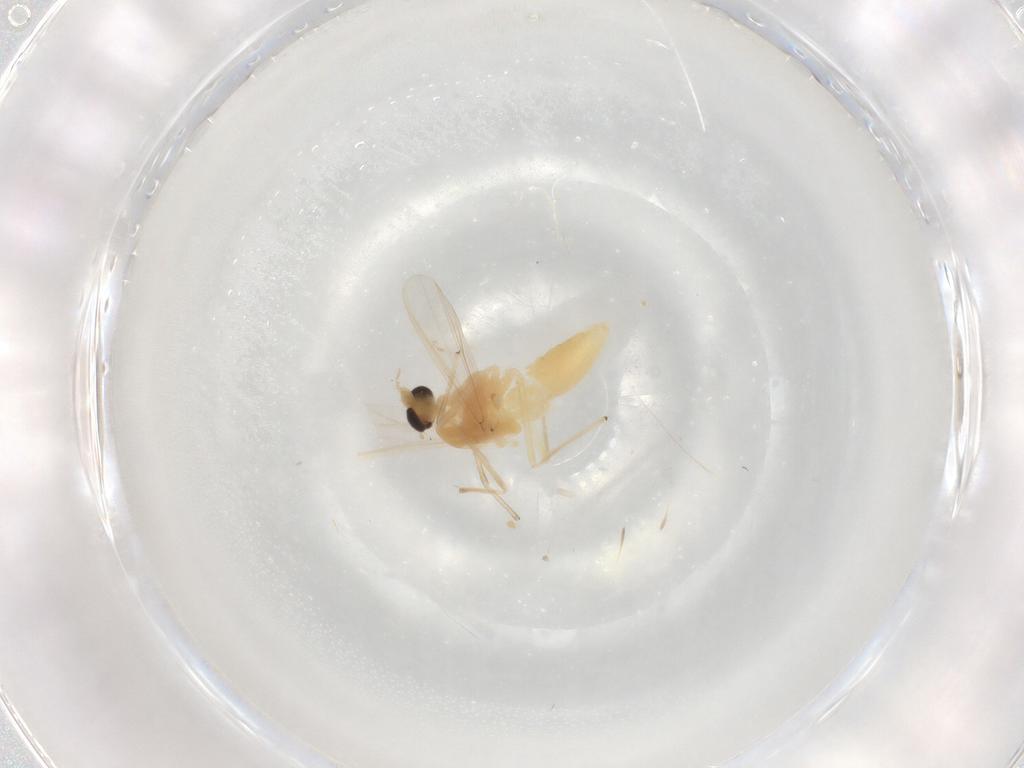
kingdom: Animalia
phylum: Arthropoda
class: Insecta
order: Diptera
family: Chironomidae
